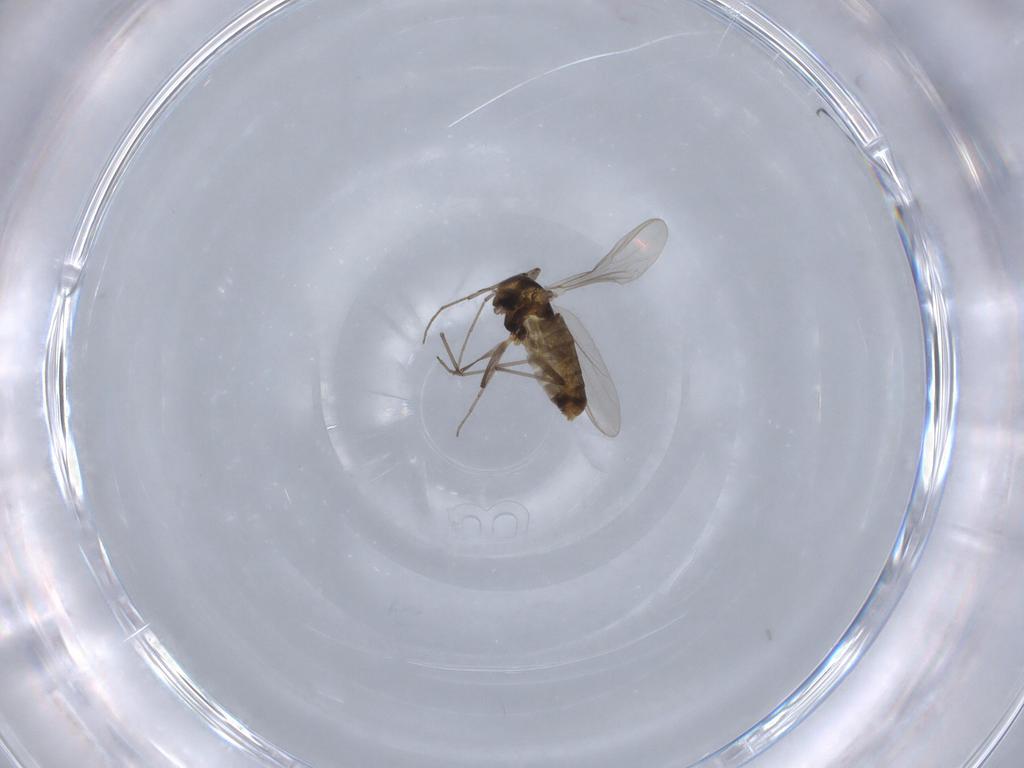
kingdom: Animalia
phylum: Arthropoda
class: Insecta
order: Diptera
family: Chironomidae
